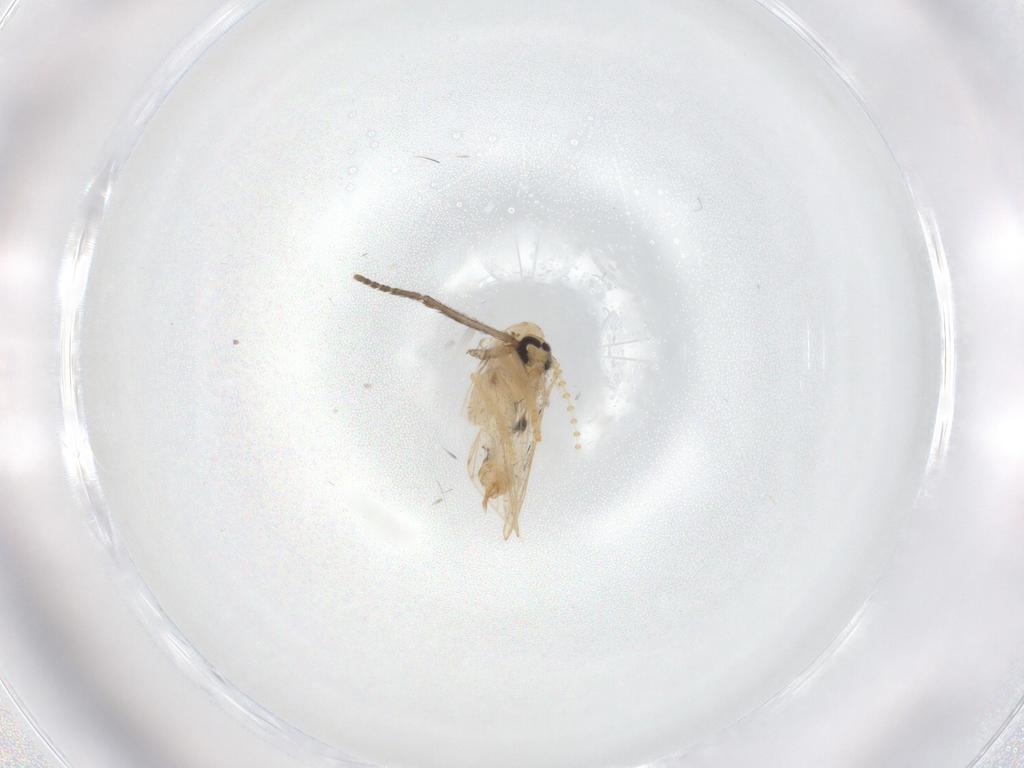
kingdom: Animalia
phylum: Arthropoda
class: Insecta
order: Diptera
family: Psychodidae
